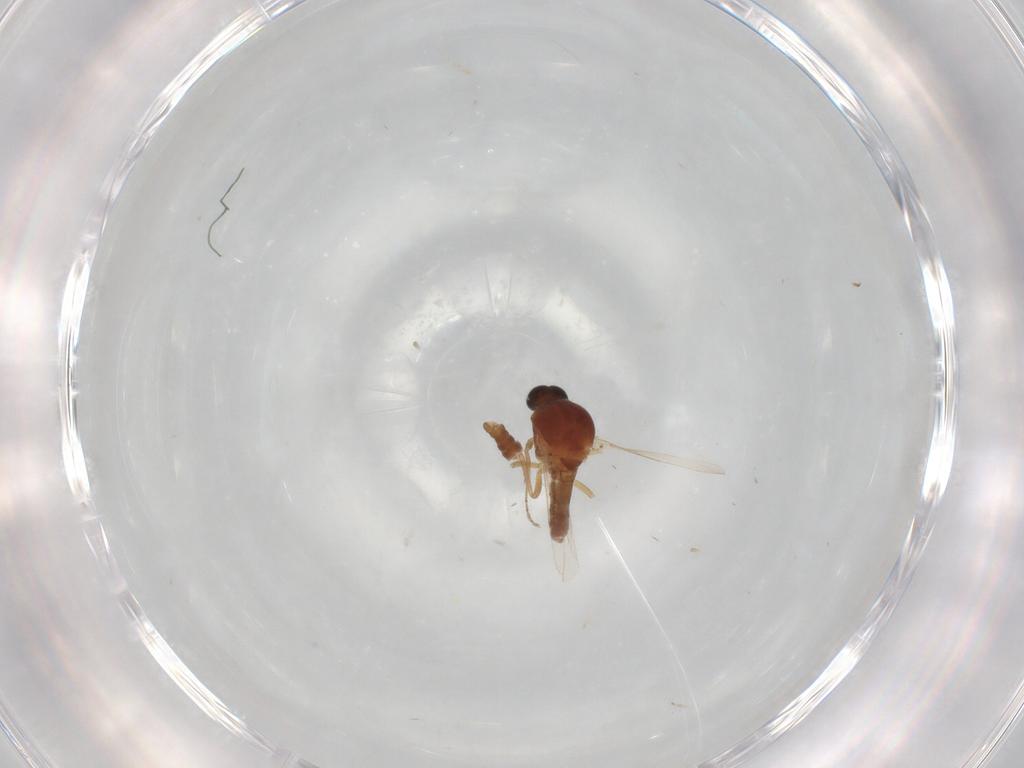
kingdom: Animalia
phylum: Arthropoda
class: Insecta
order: Diptera
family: Ceratopogonidae
